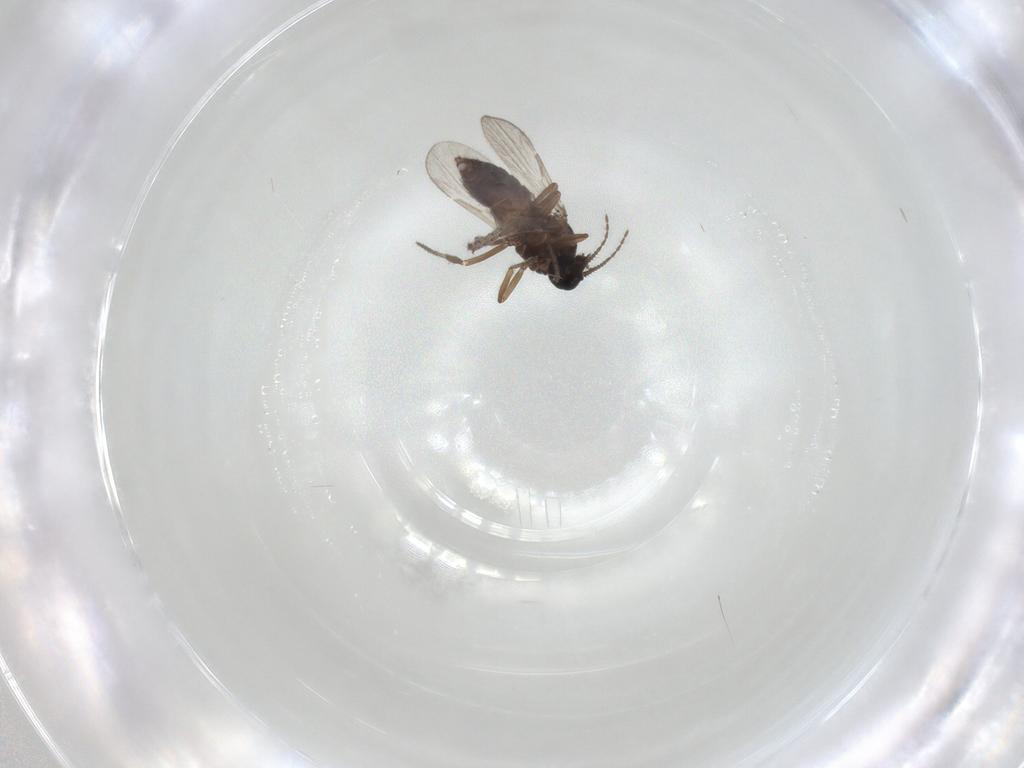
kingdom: Animalia
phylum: Arthropoda
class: Insecta
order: Diptera
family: Ceratopogonidae
